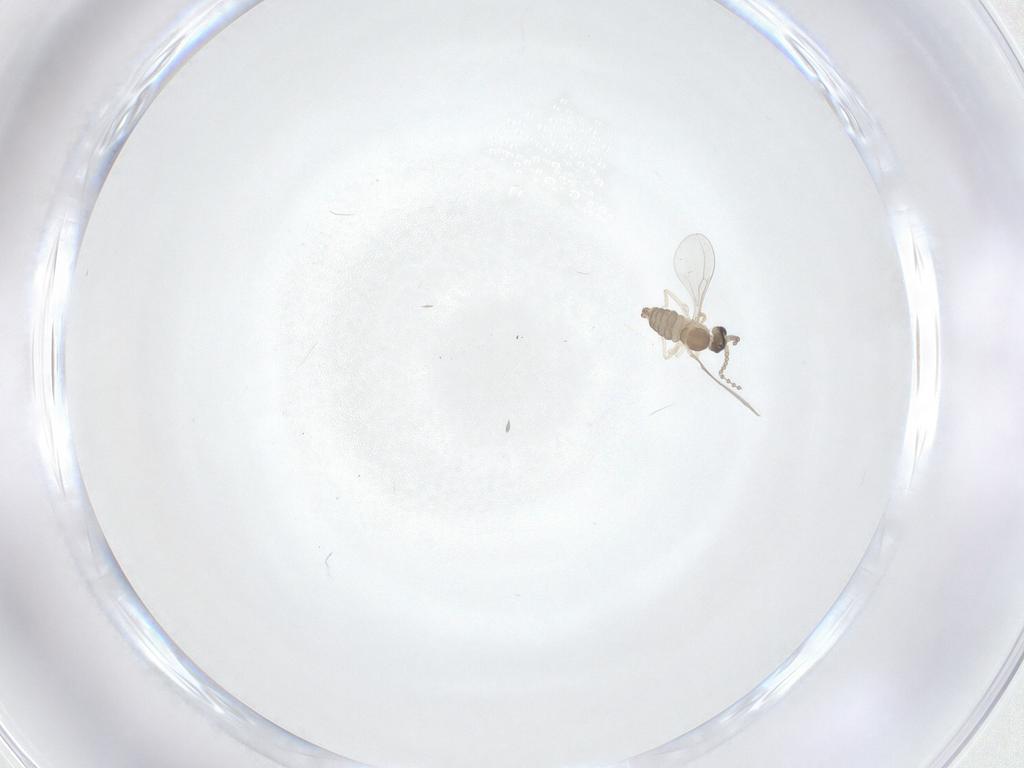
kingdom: Animalia
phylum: Arthropoda
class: Insecta
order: Diptera
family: Cecidomyiidae
